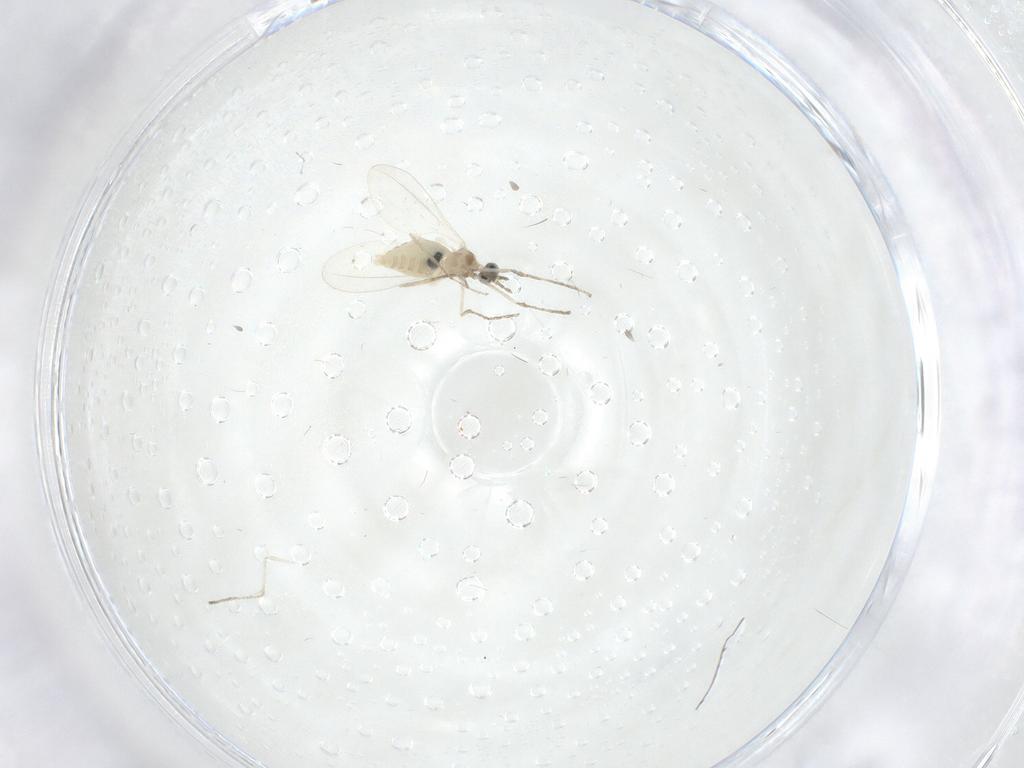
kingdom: Animalia
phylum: Arthropoda
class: Insecta
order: Diptera
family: Cecidomyiidae
